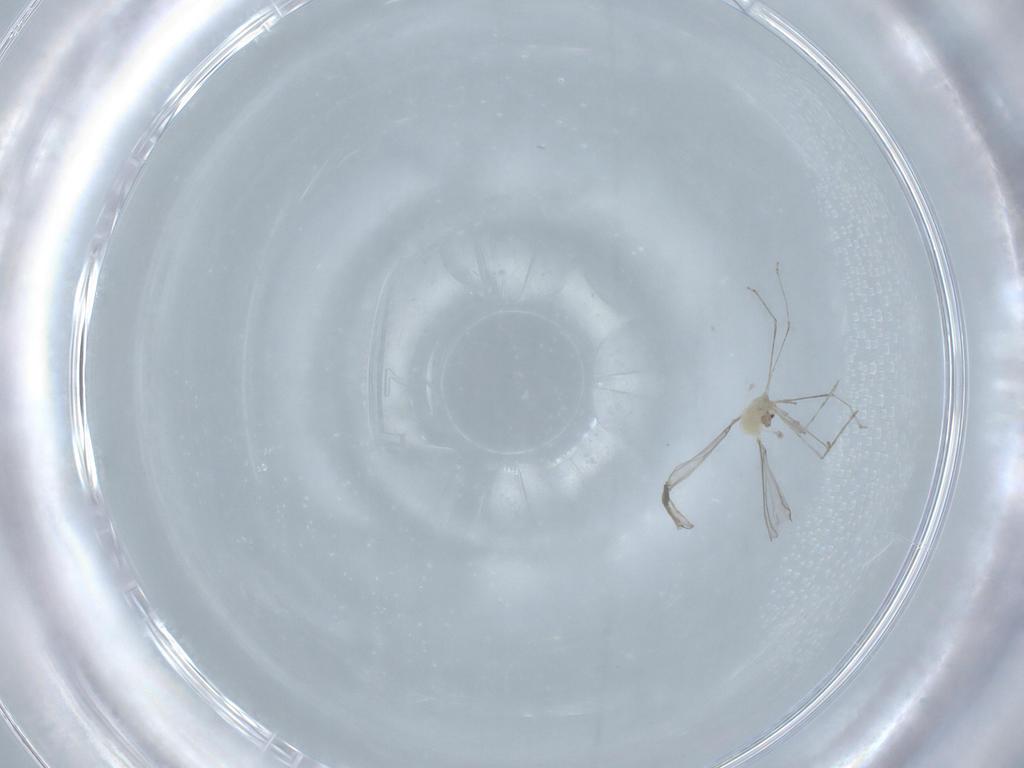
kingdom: Animalia
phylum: Arthropoda
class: Insecta
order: Diptera
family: Cecidomyiidae
